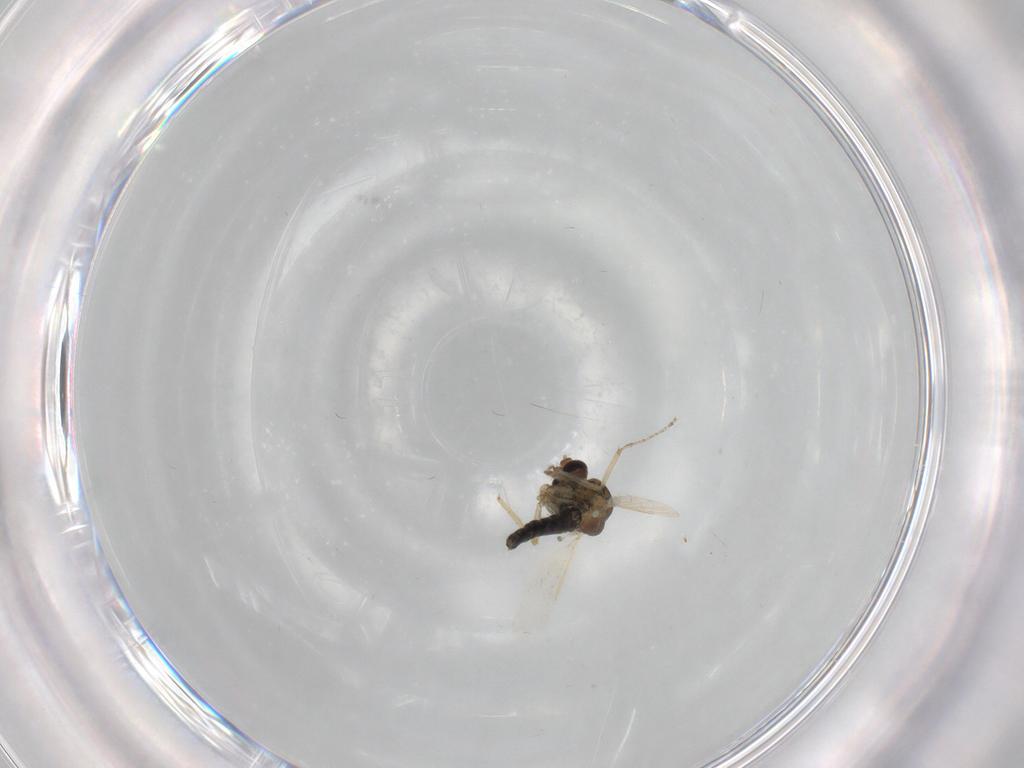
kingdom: Animalia
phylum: Arthropoda
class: Insecta
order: Diptera
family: Ceratopogonidae
